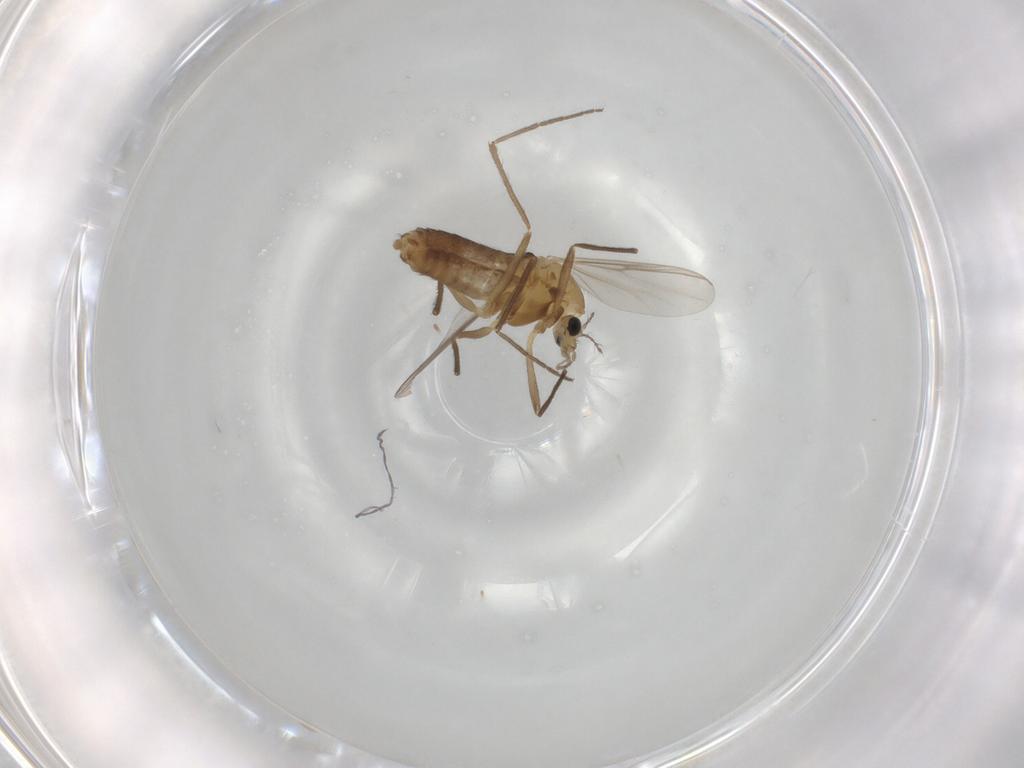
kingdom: Animalia
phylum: Arthropoda
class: Insecta
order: Diptera
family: Chironomidae
